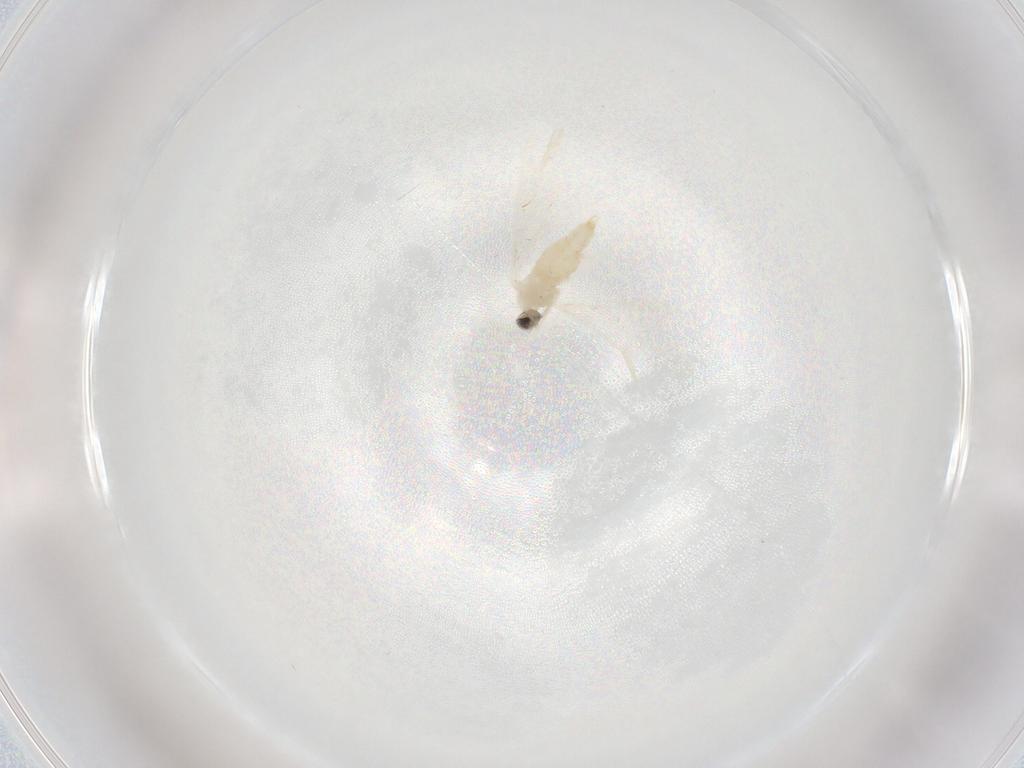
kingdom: Animalia
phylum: Arthropoda
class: Insecta
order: Diptera
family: Cecidomyiidae
